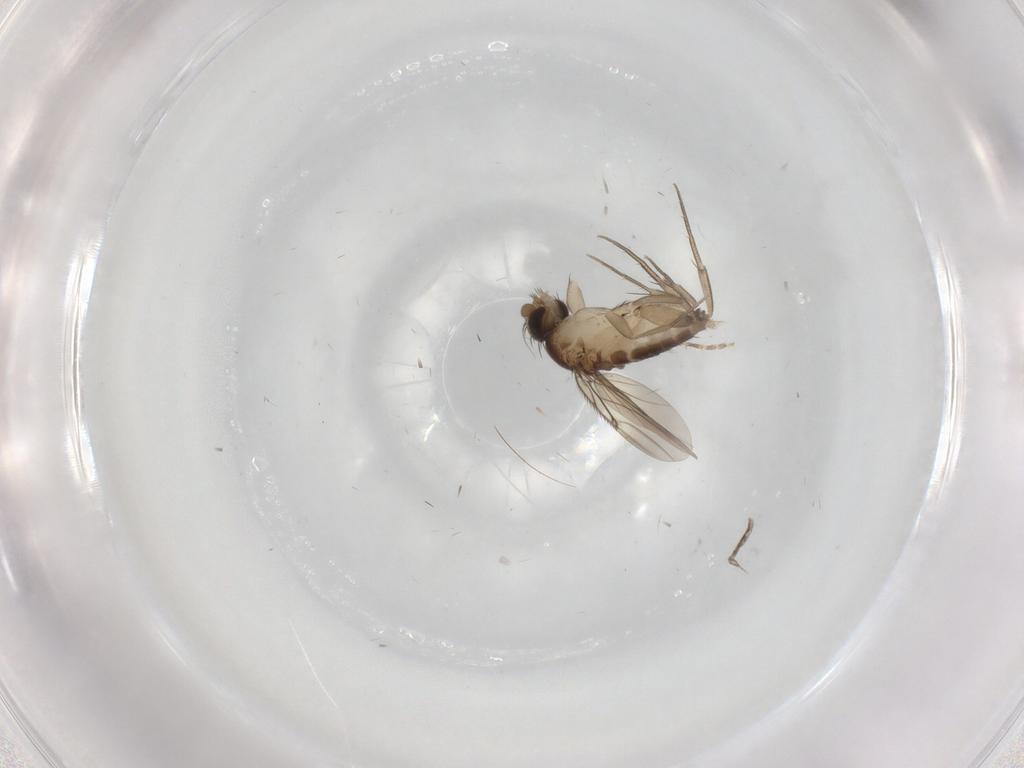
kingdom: Animalia
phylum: Arthropoda
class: Insecta
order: Diptera
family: Phoridae
